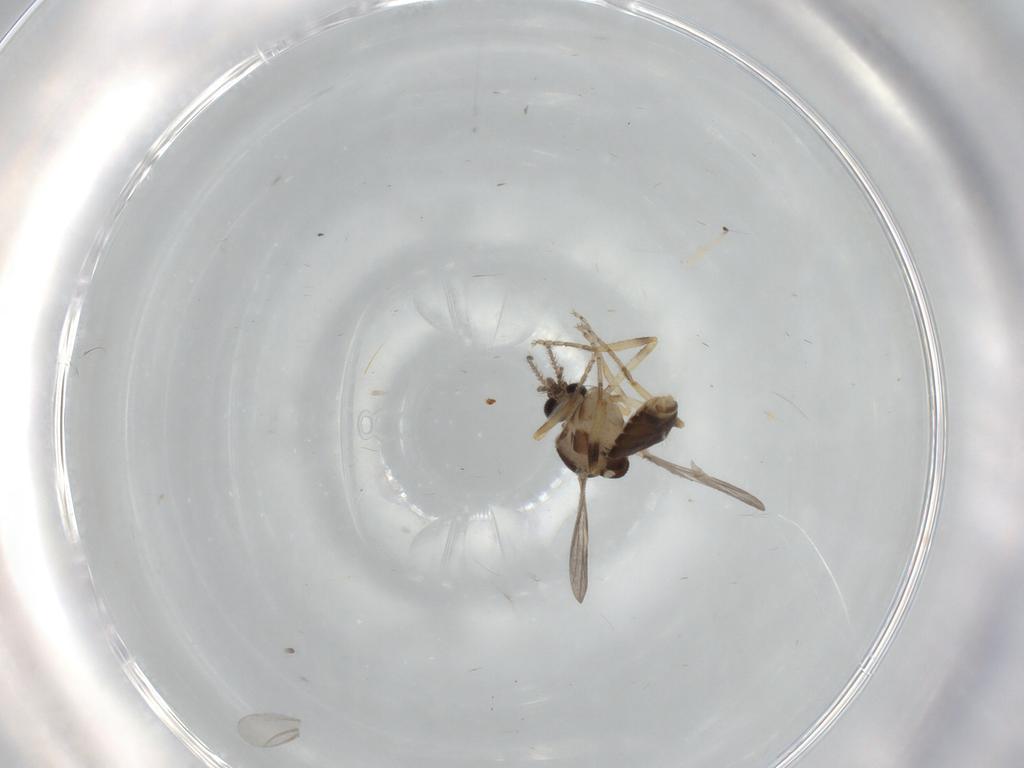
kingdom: Animalia
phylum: Arthropoda
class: Insecta
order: Diptera
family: Ceratopogonidae
